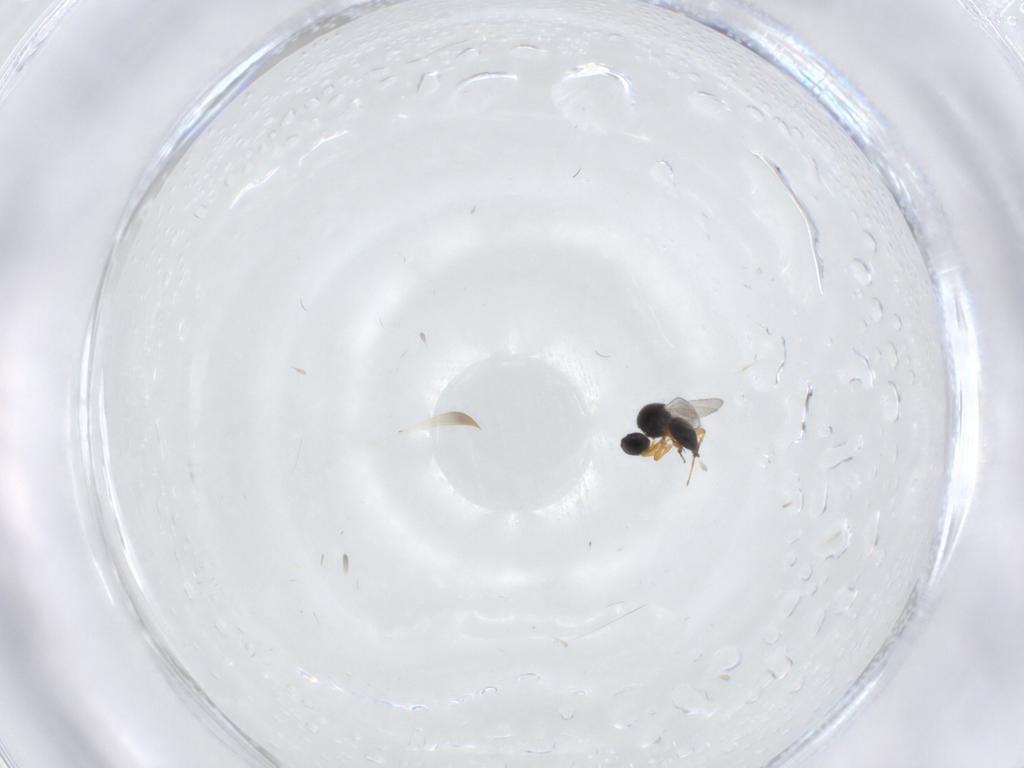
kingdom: Animalia
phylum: Arthropoda
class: Insecta
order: Hymenoptera
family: Platygastridae
